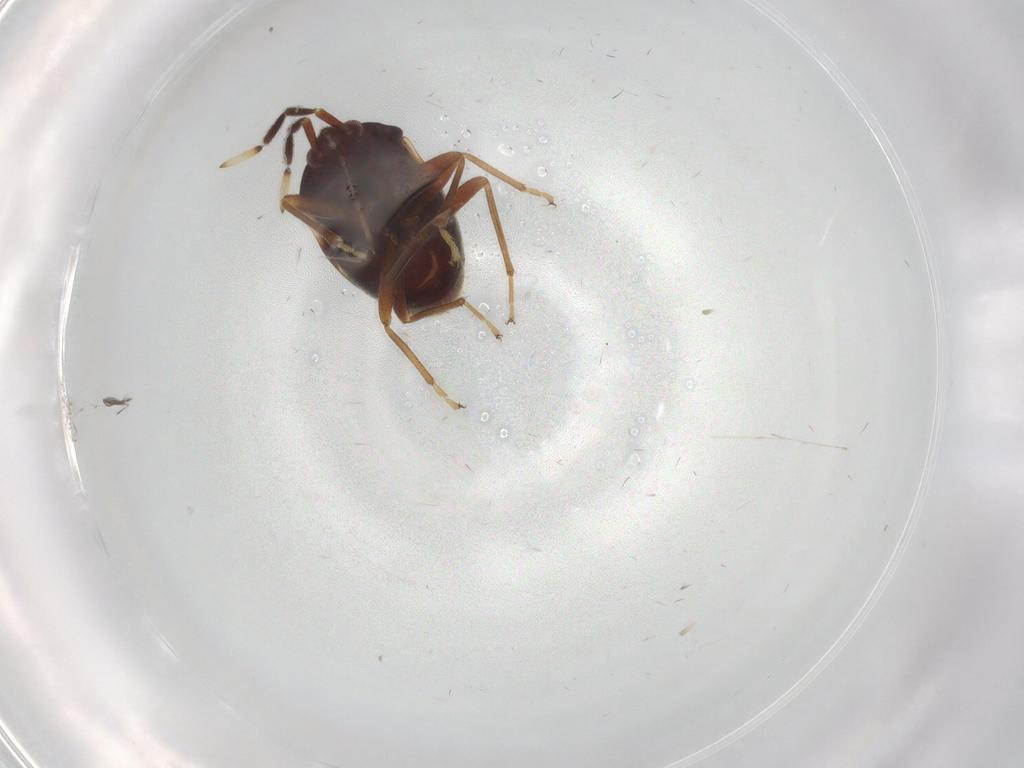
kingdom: Animalia
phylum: Arthropoda
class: Insecta
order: Hemiptera
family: Rhyparochromidae
